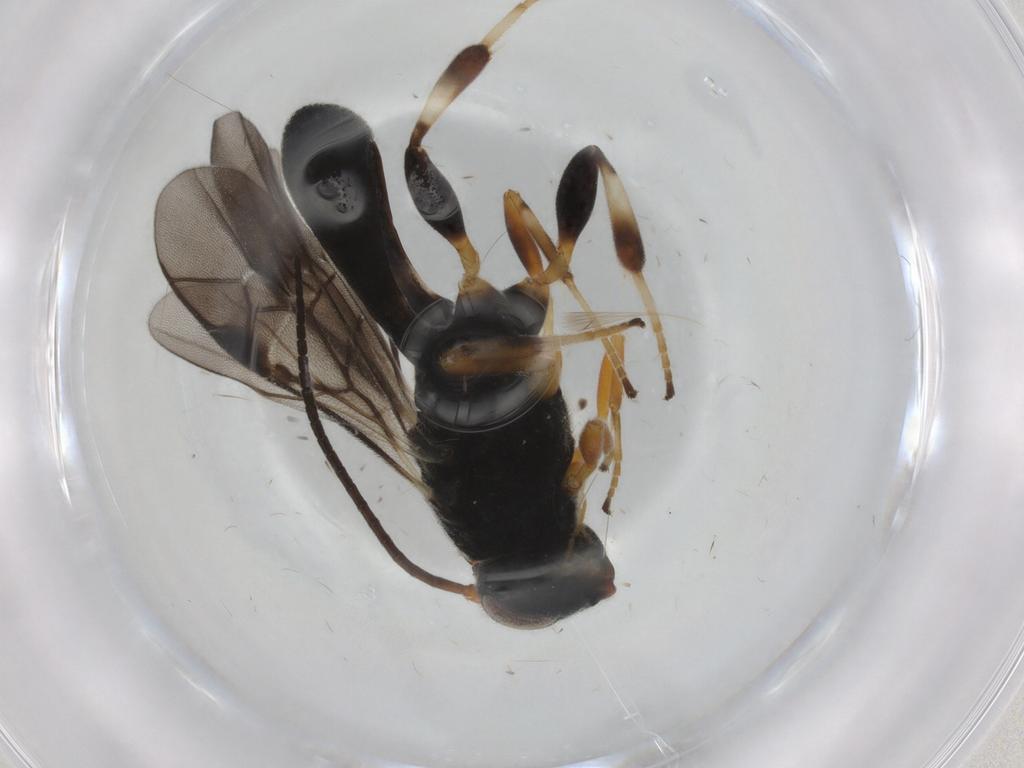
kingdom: Animalia
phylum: Arthropoda
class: Insecta
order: Hymenoptera
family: Braconidae
